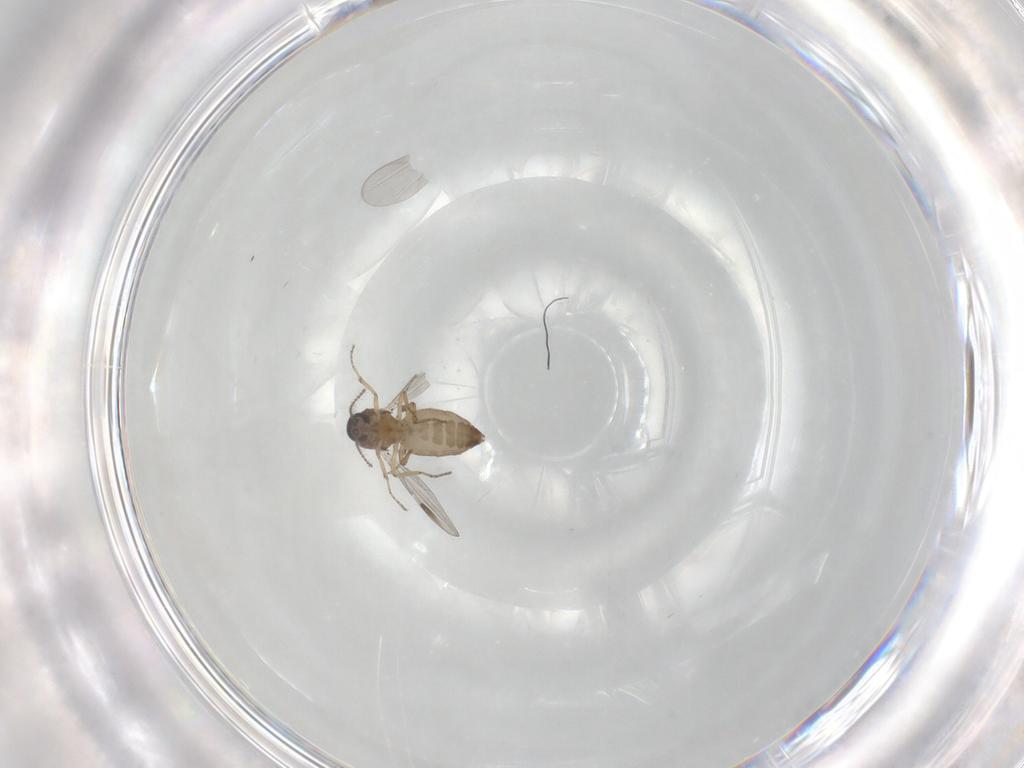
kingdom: Animalia
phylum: Arthropoda
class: Insecta
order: Diptera
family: Ceratopogonidae
